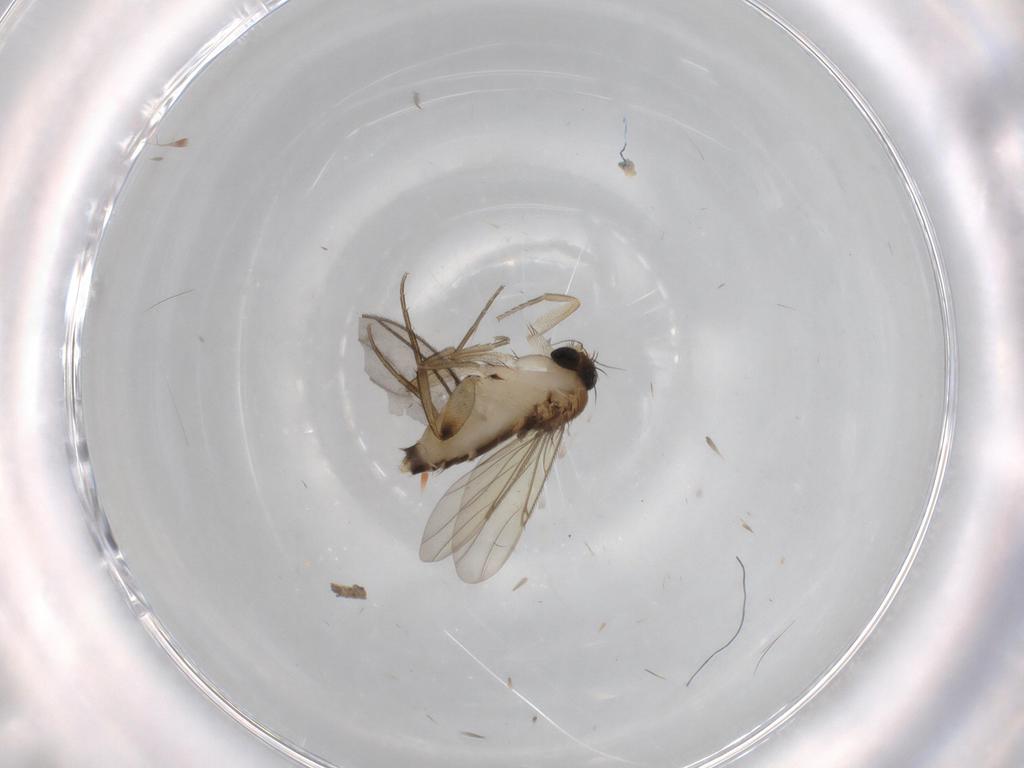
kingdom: Animalia
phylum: Arthropoda
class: Insecta
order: Diptera
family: Phoridae
